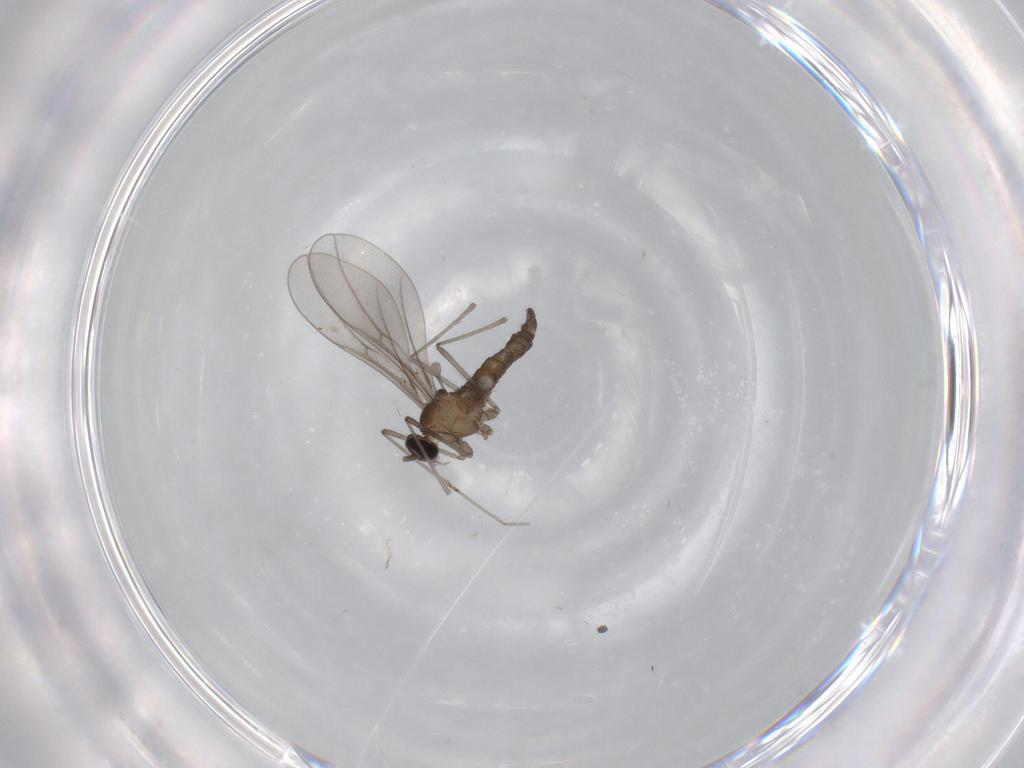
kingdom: Animalia
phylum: Arthropoda
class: Insecta
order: Diptera
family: Cecidomyiidae
